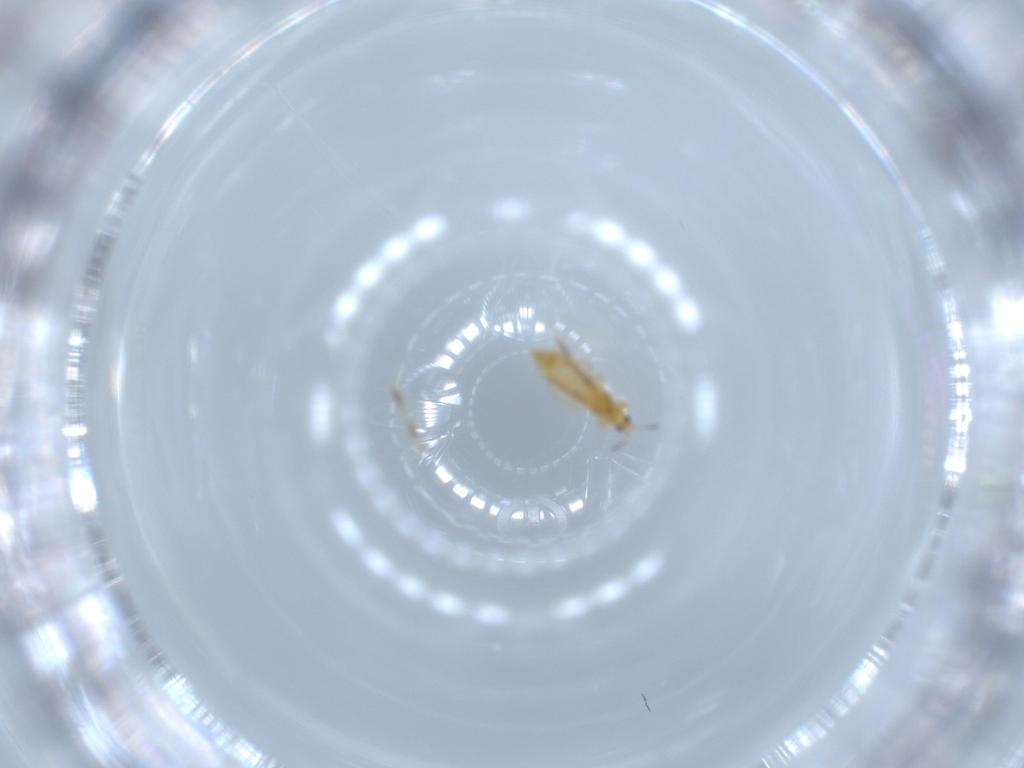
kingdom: Animalia
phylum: Arthropoda
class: Insecta
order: Thysanoptera
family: Thripidae
